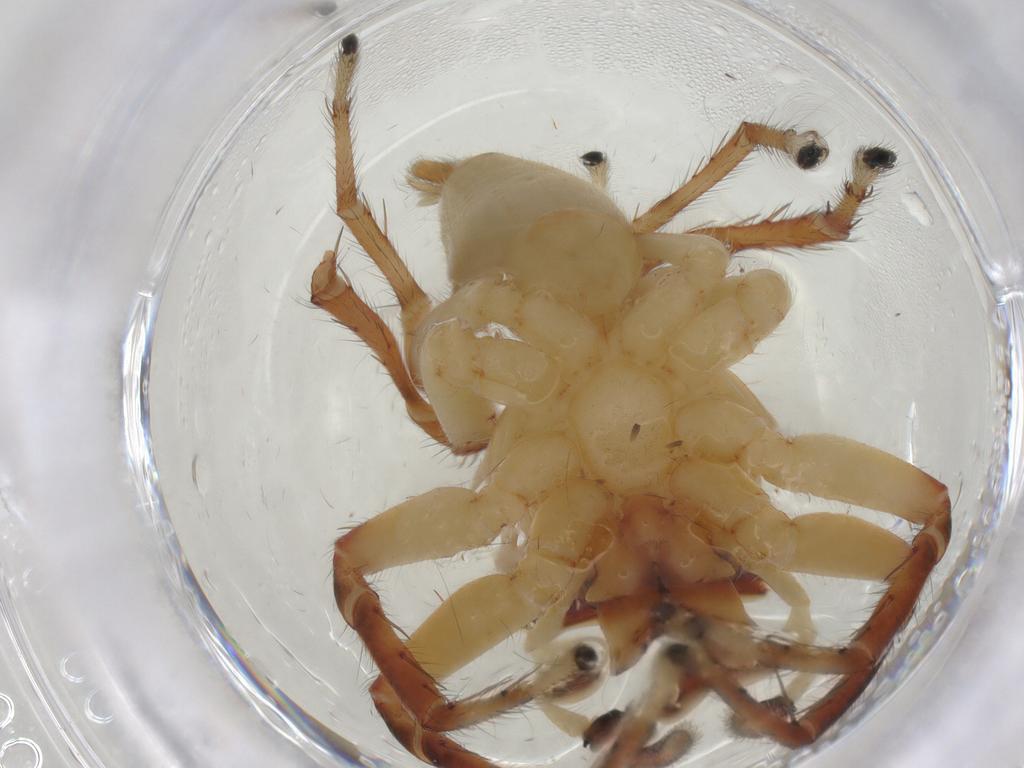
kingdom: Animalia
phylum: Arthropoda
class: Arachnida
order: Araneae
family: Salticidae
